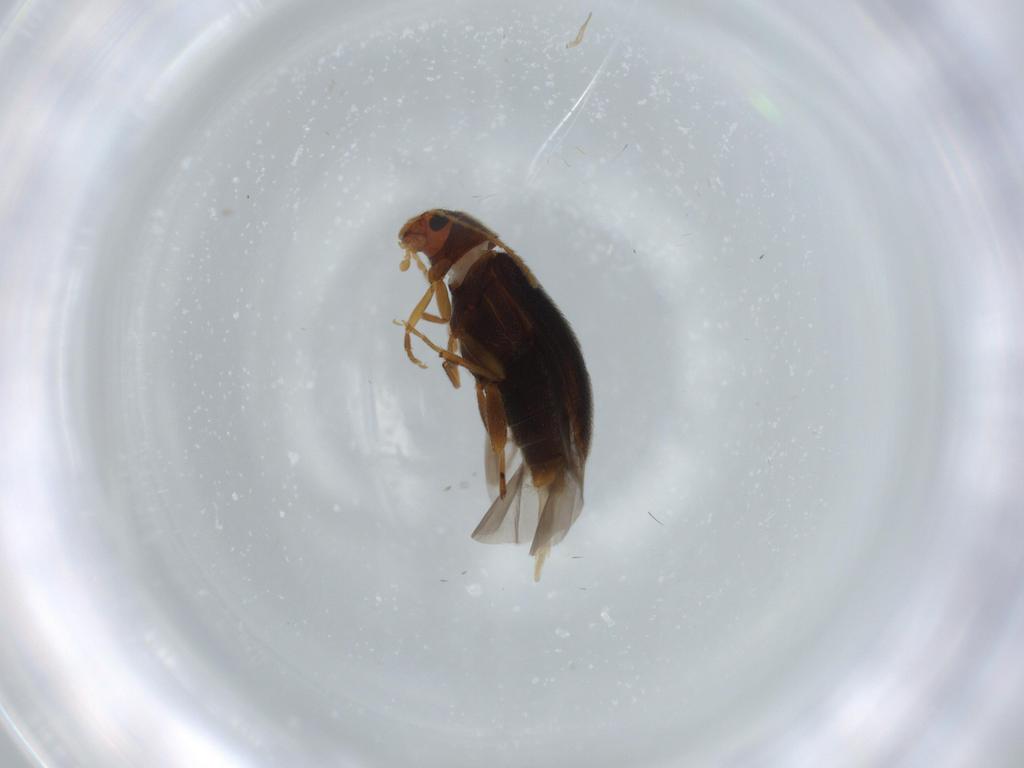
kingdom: Animalia
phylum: Arthropoda
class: Insecta
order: Coleoptera
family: Melandryidae
